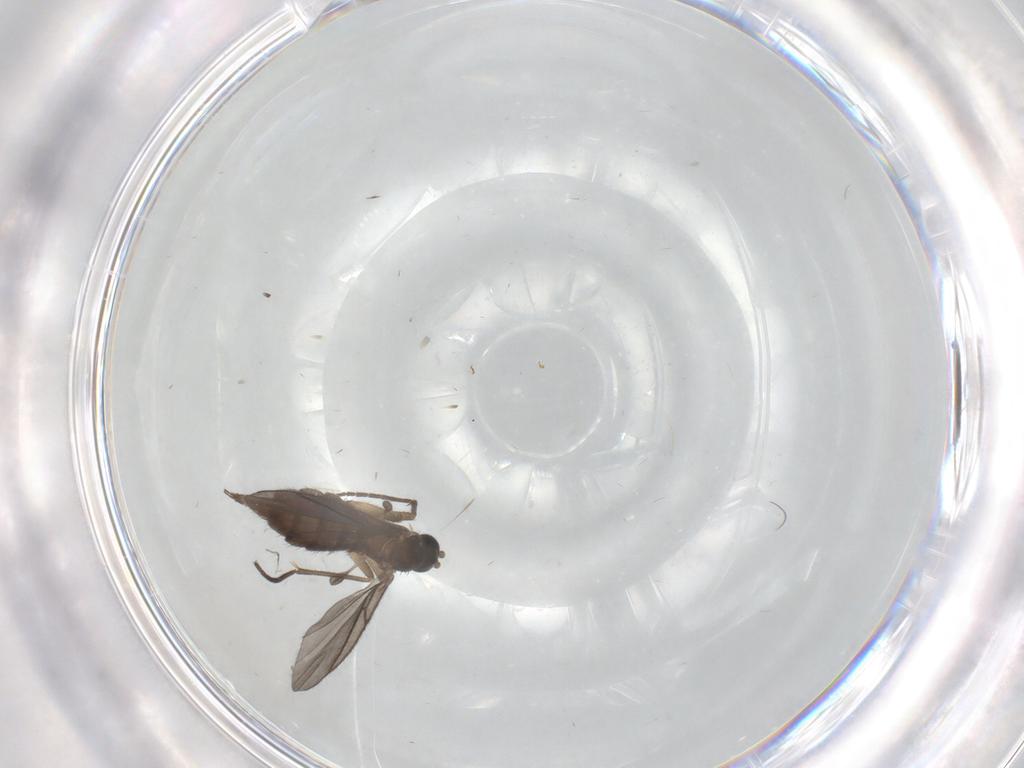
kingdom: Animalia
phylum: Arthropoda
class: Insecta
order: Diptera
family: Sciaridae
